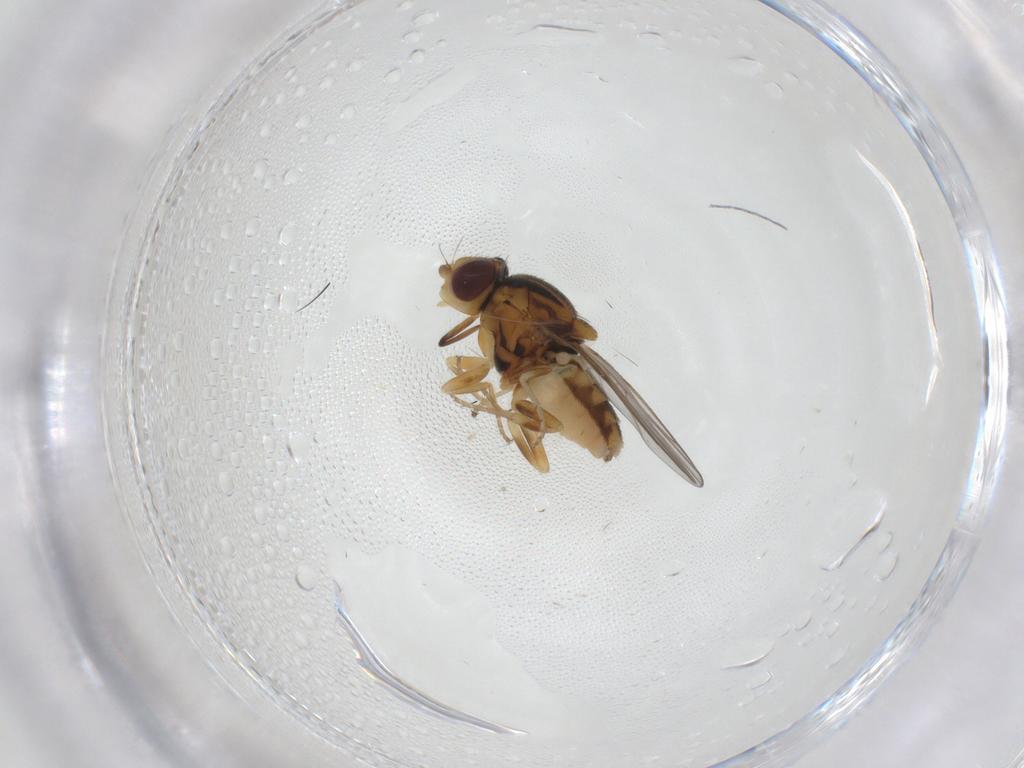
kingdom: Animalia
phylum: Arthropoda
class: Insecta
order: Diptera
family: Chloropidae
